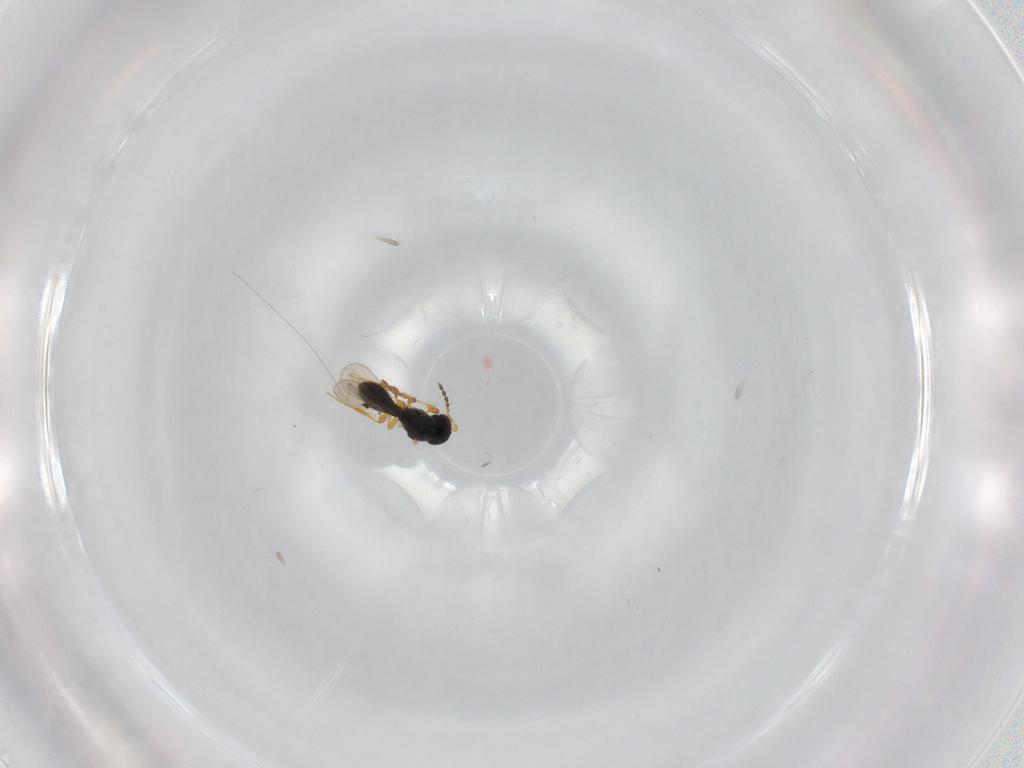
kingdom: Animalia
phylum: Arthropoda
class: Insecta
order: Hymenoptera
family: Platygastridae
